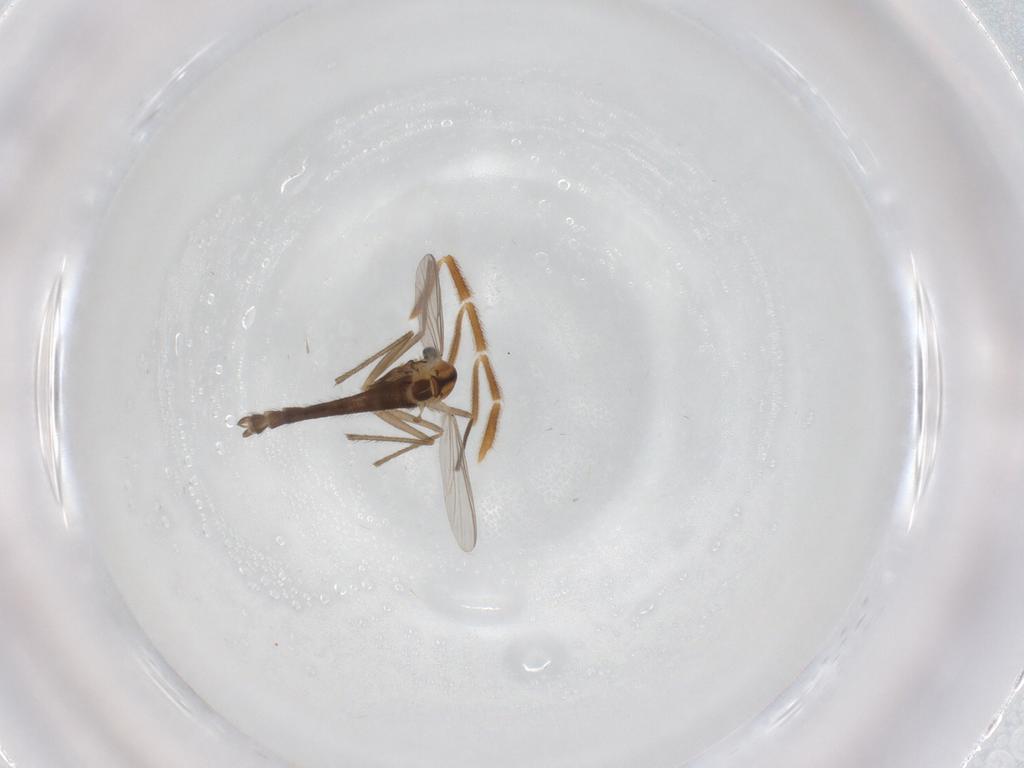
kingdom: Animalia
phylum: Arthropoda
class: Insecta
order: Diptera
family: Chironomidae
